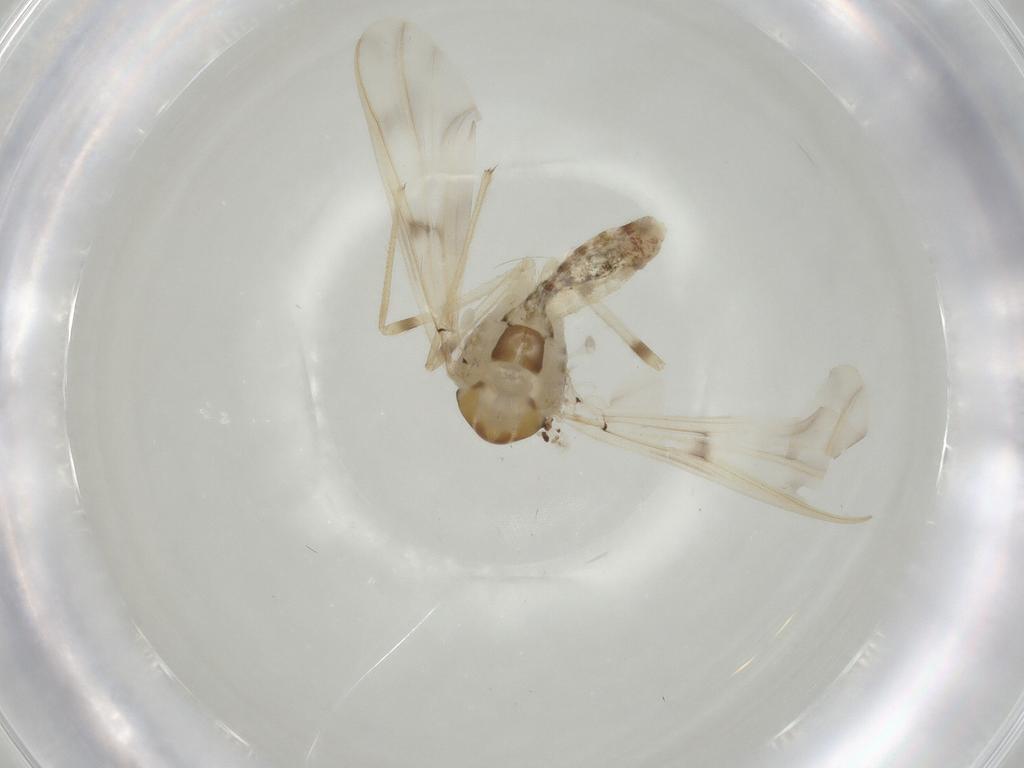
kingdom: Animalia
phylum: Arthropoda
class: Insecta
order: Diptera
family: Chironomidae
